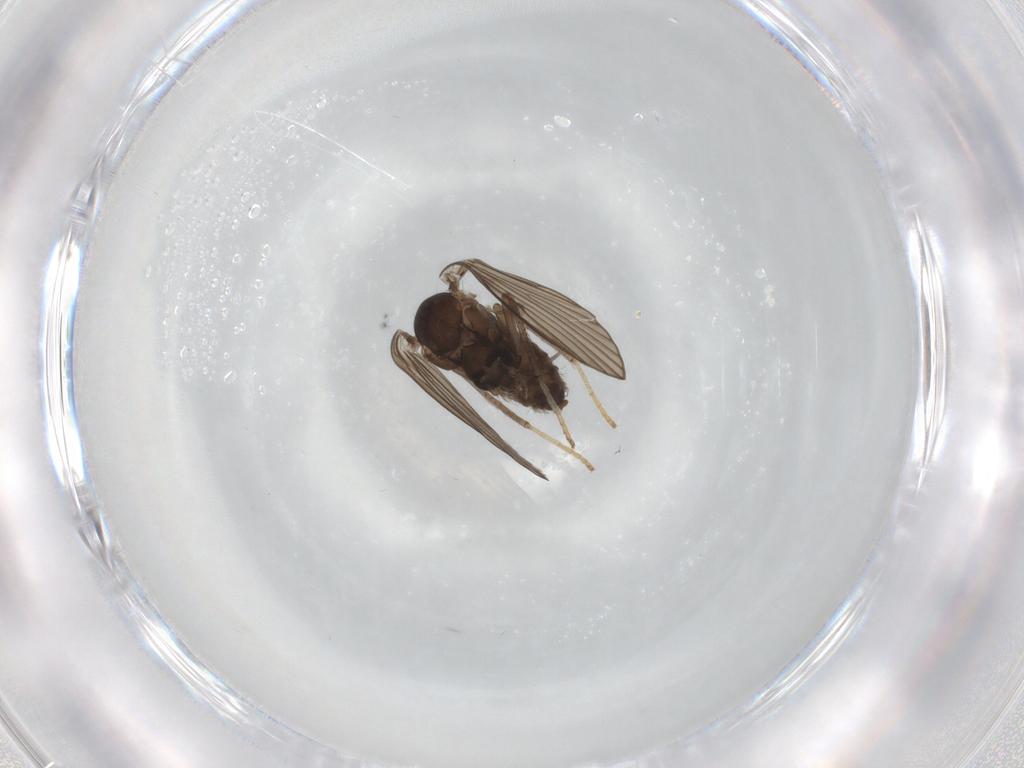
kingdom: Animalia
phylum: Arthropoda
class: Insecta
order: Diptera
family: Psychodidae
